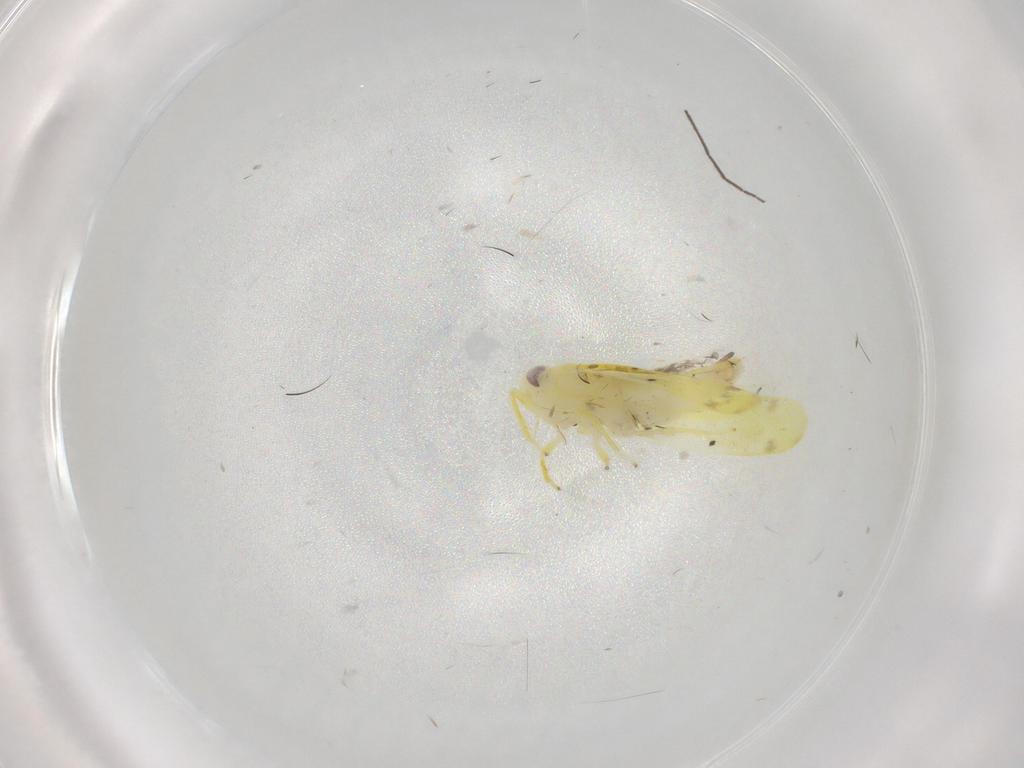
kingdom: Animalia
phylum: Arthropoda
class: Insecta
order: Hemiptera
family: Cicadellidae
